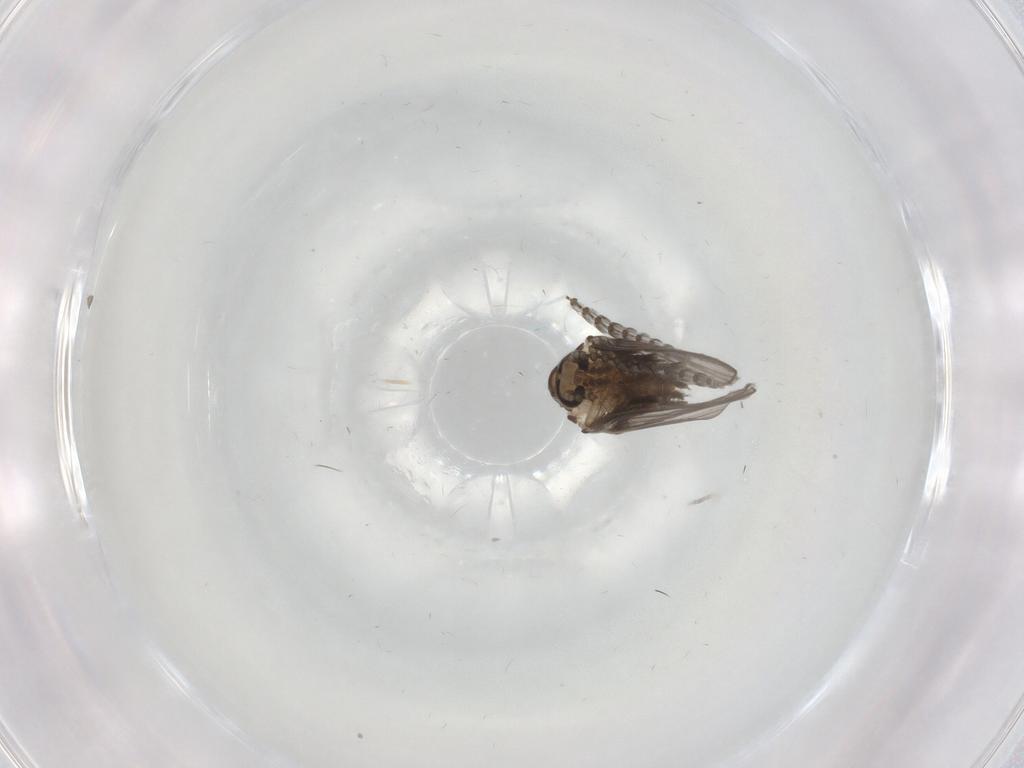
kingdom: Animalia
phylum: Arthropoda
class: Insecta
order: Diptera
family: Psychodidae
